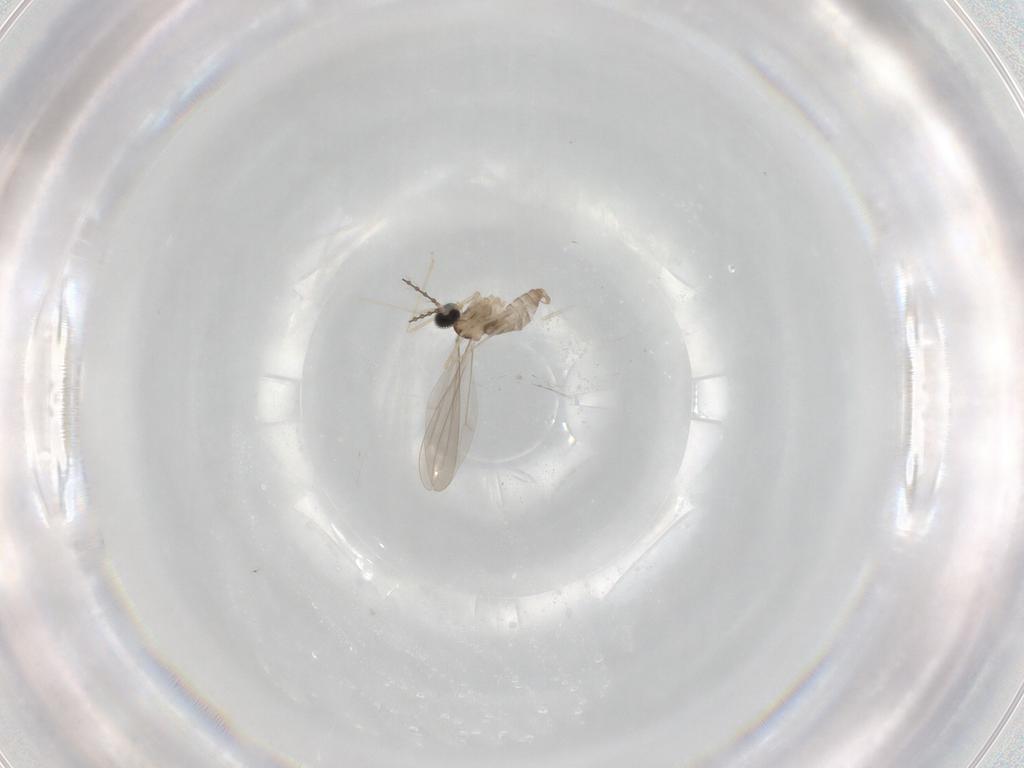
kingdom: Animalia
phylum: Arthropoda
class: Insecta
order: Diptera
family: Cecidomyiidae
